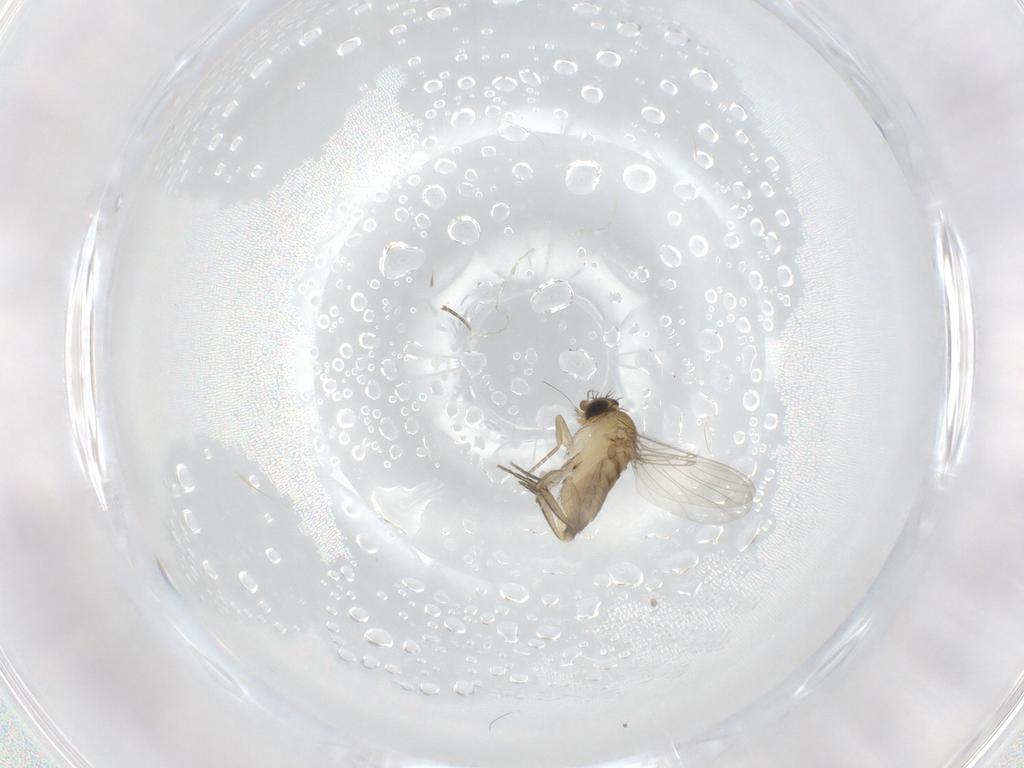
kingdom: Animalia
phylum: Arthropoda
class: Insecta
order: Diptera
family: Phoridae
